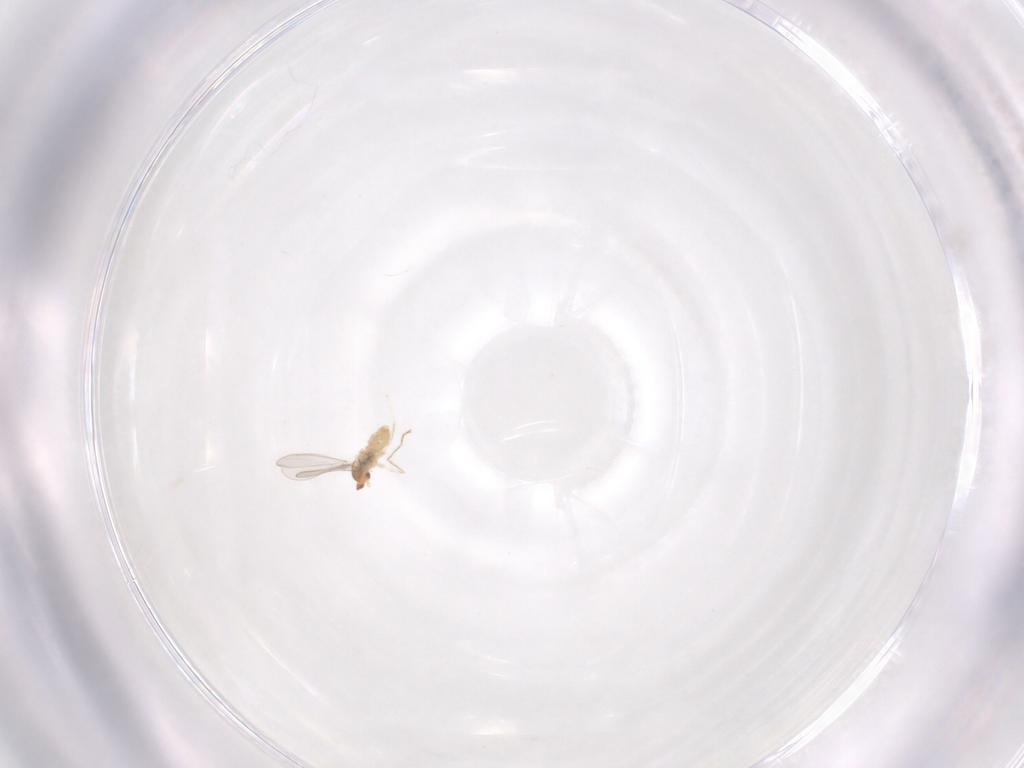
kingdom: Animalia
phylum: Arthropoda
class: Insecta
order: Diptera
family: Cecidomyiidae
